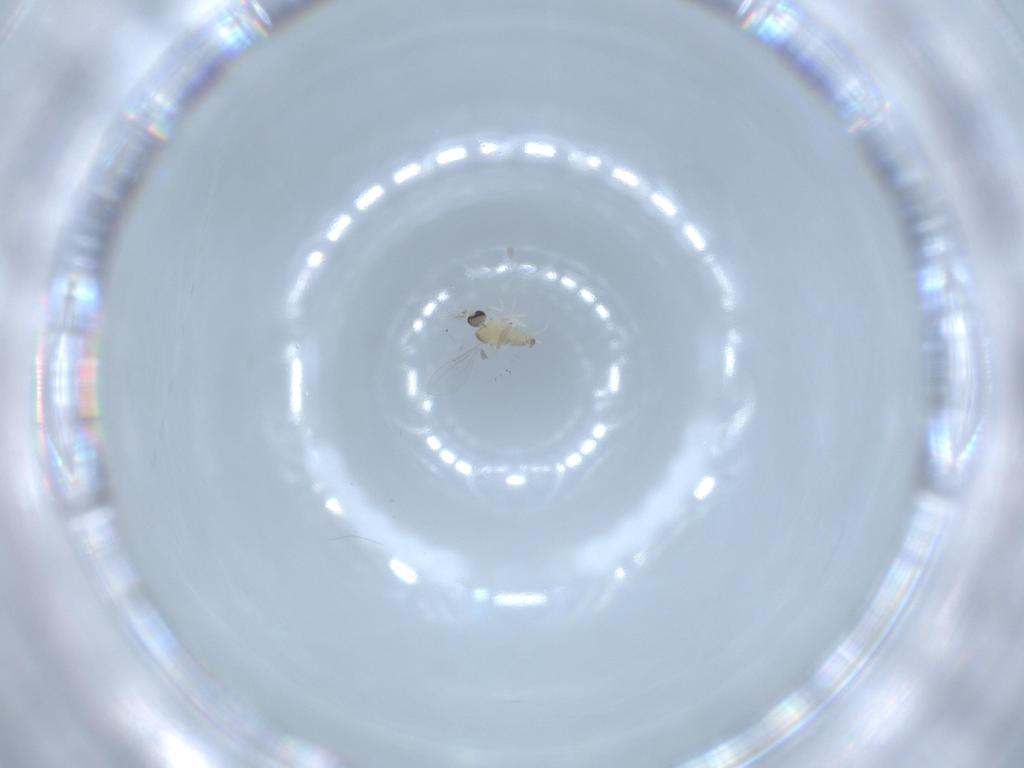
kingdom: Animalia
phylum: Arthropoda
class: Insecta
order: Diptera
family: Cecidomyiidae
